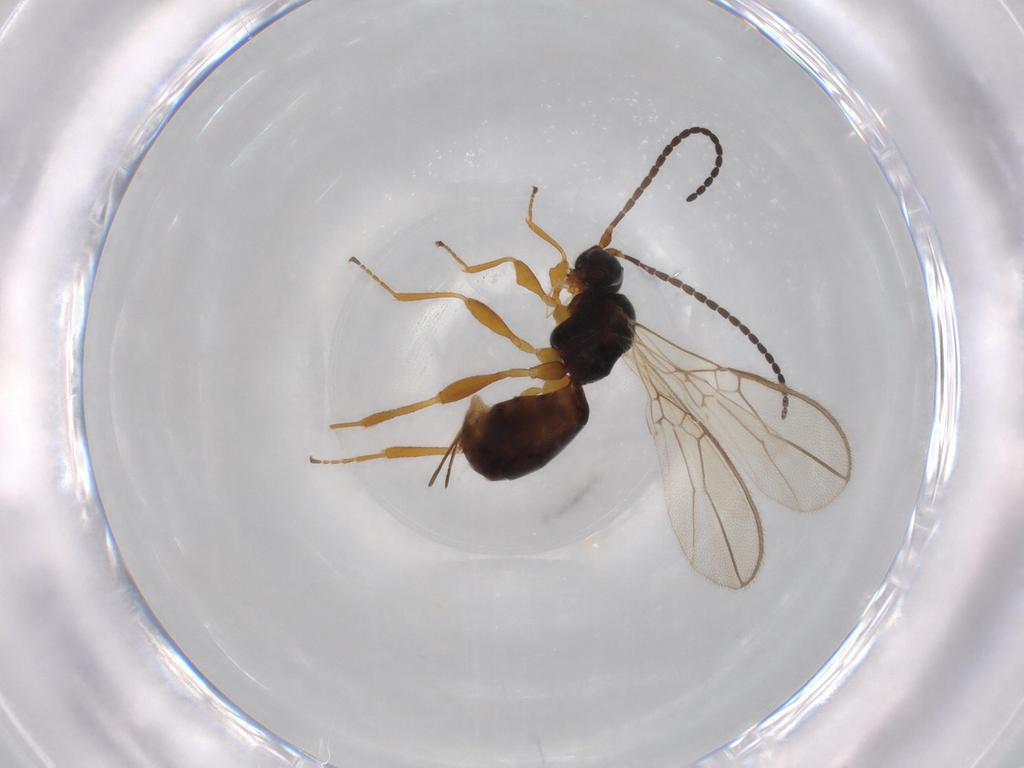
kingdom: Animalia
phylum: Arthropoda
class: Insecta
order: Hymenoptera
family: Braconidae
